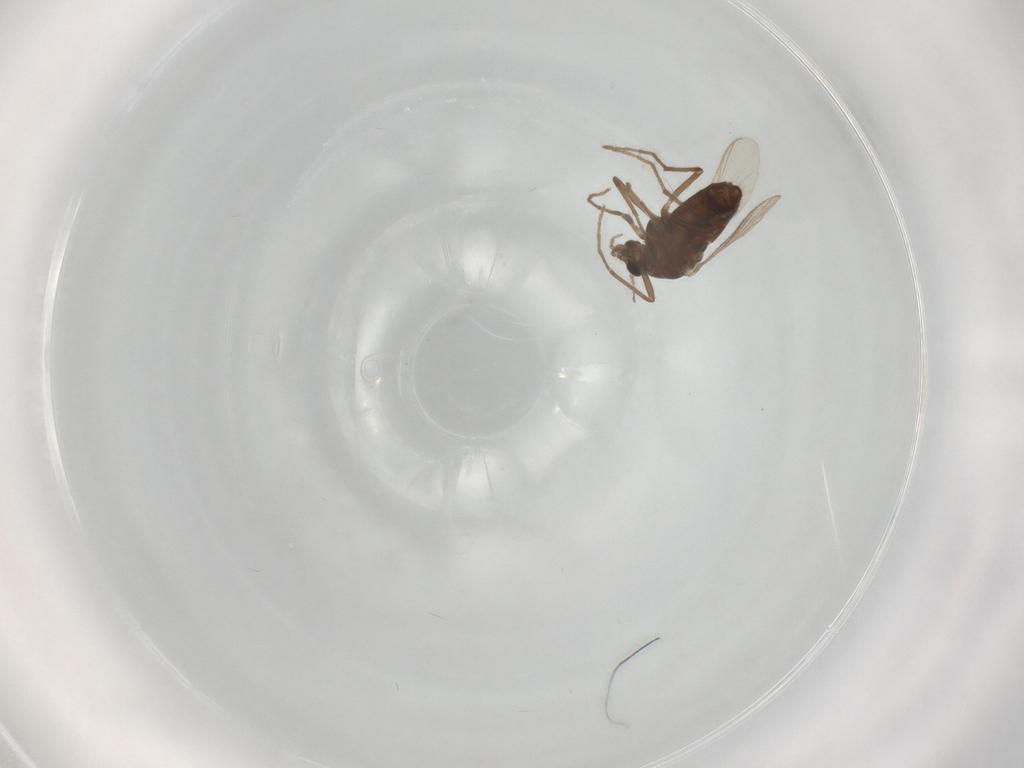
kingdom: Animalia
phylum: Arthropoda
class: Insecta
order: Diptera
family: Chironomidae
